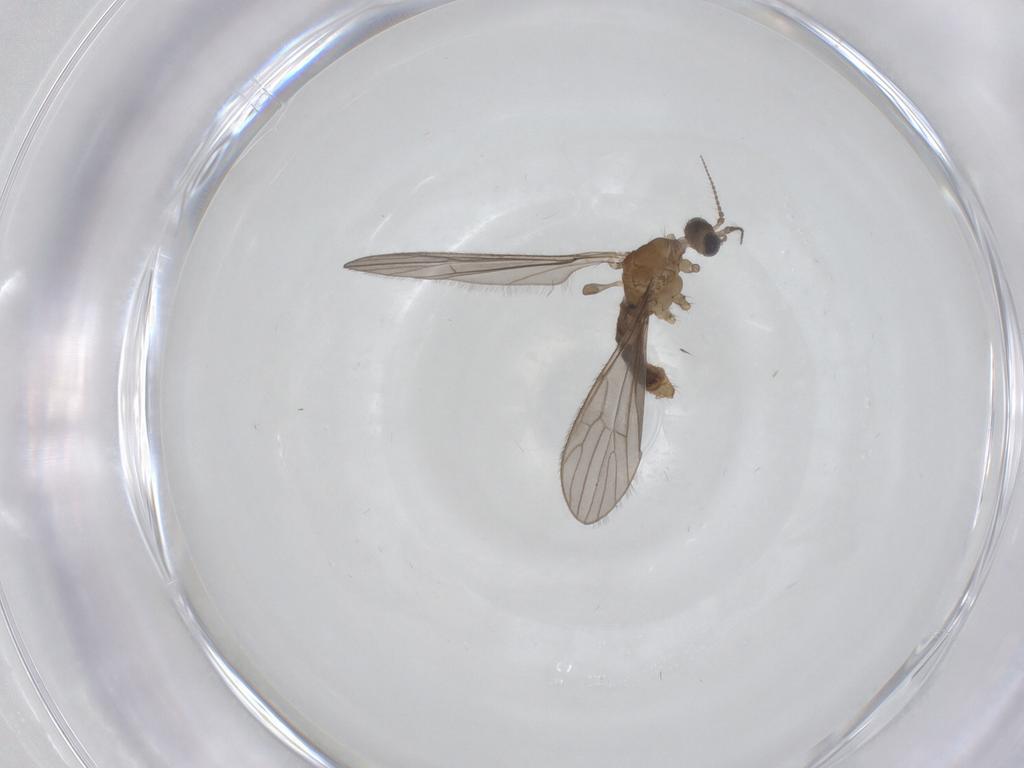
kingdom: Animalia
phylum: Arthropoda
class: Insecta
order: Diptera
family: Limoniidae
